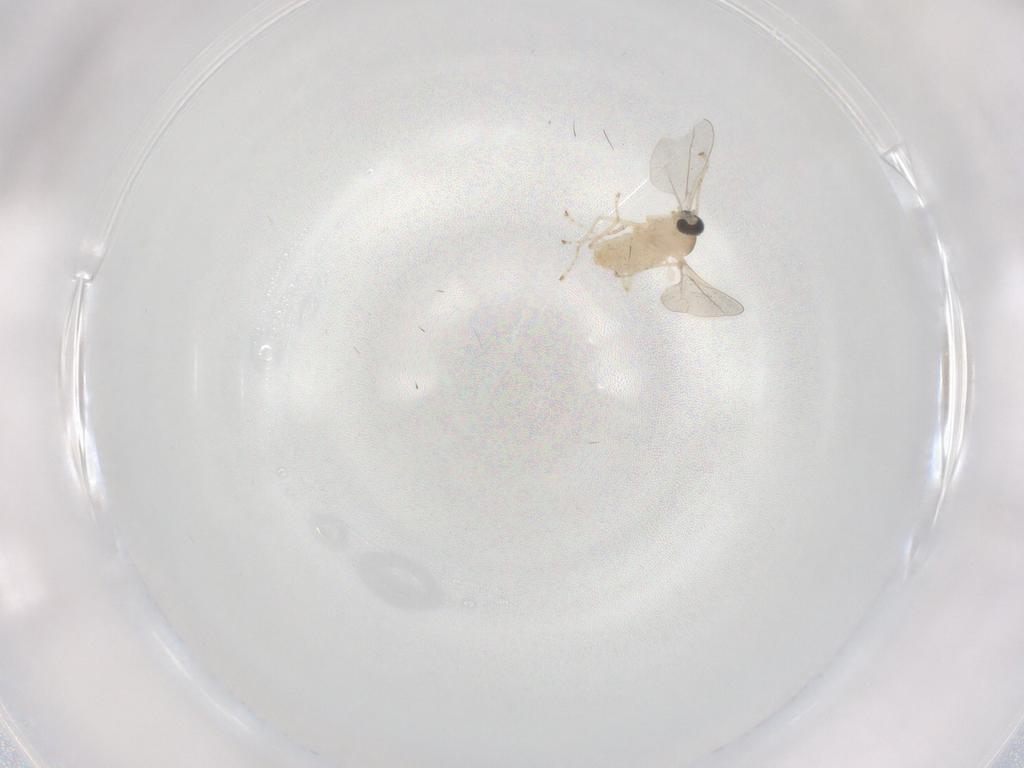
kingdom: Animalia
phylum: Arthropoda
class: Insecta
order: Diptera
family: Cecidomyiidae
